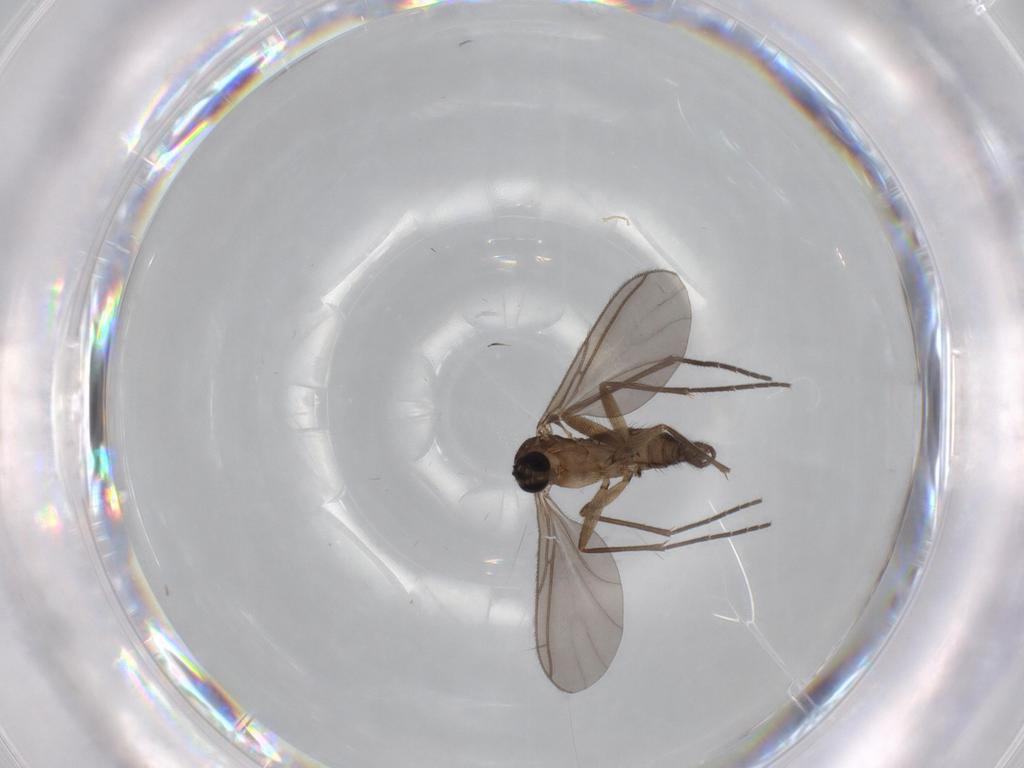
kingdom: Animalia
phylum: Arthropoda
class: Insecta
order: Diptera
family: Sciaridae
